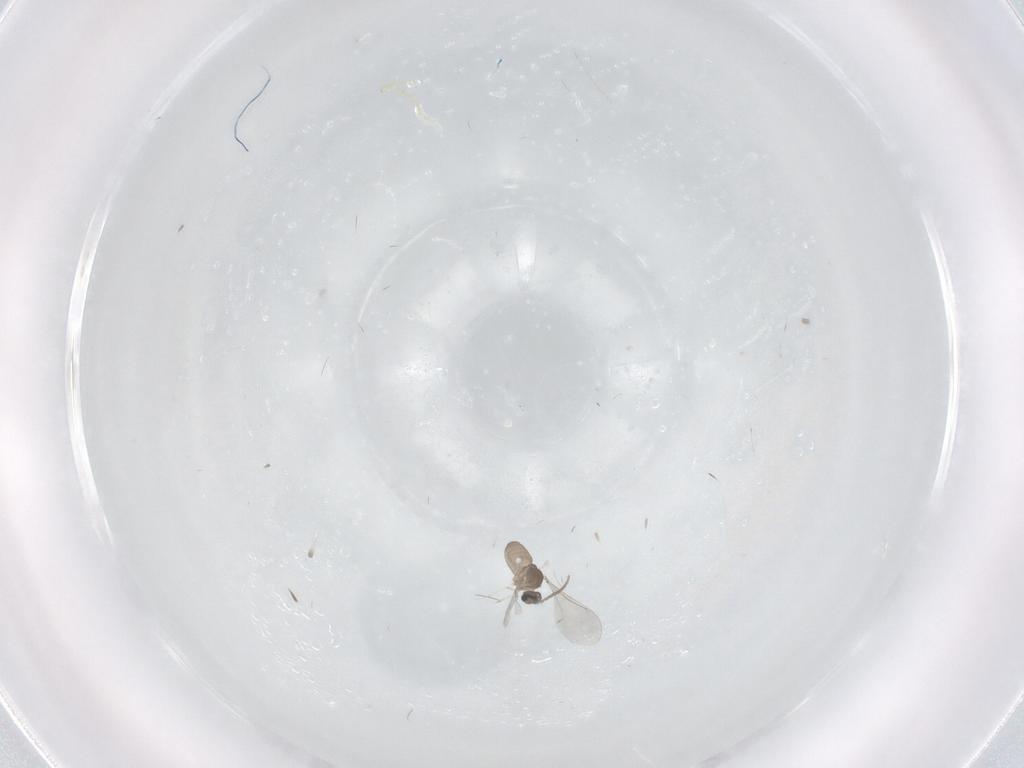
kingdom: Animalia
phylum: Arthropoda
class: Insecta
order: Diptera
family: Cecidomyiidae
